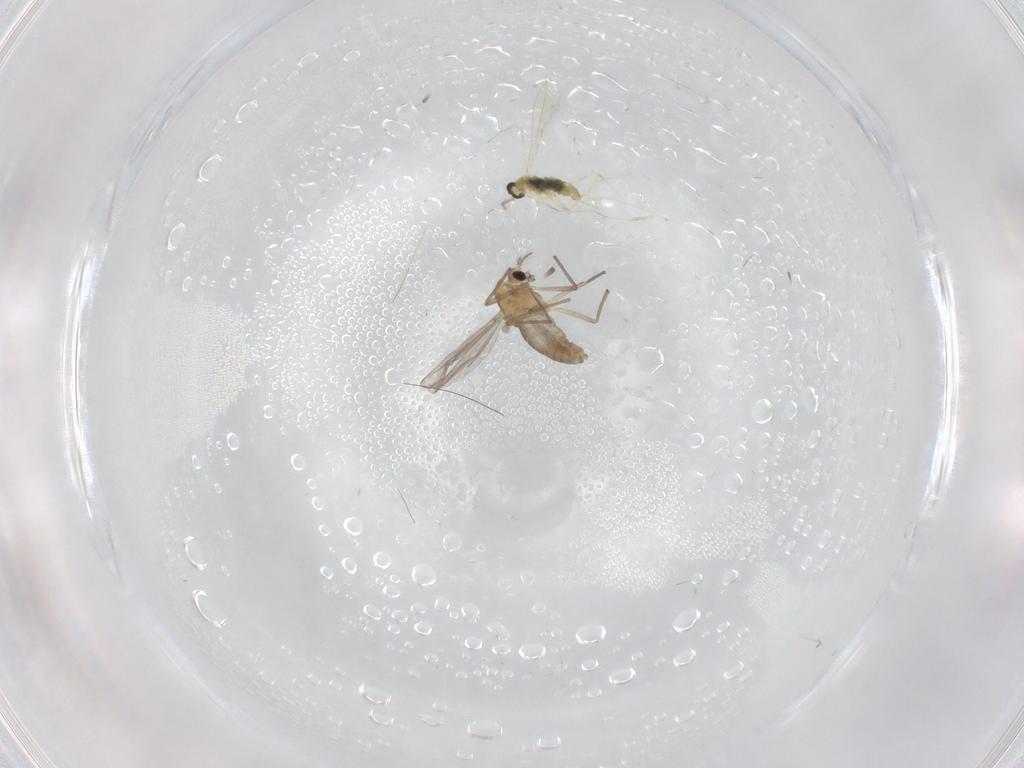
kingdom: Animalia
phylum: Arthropoda
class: Insecta
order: Diptera
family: Chironomidae
